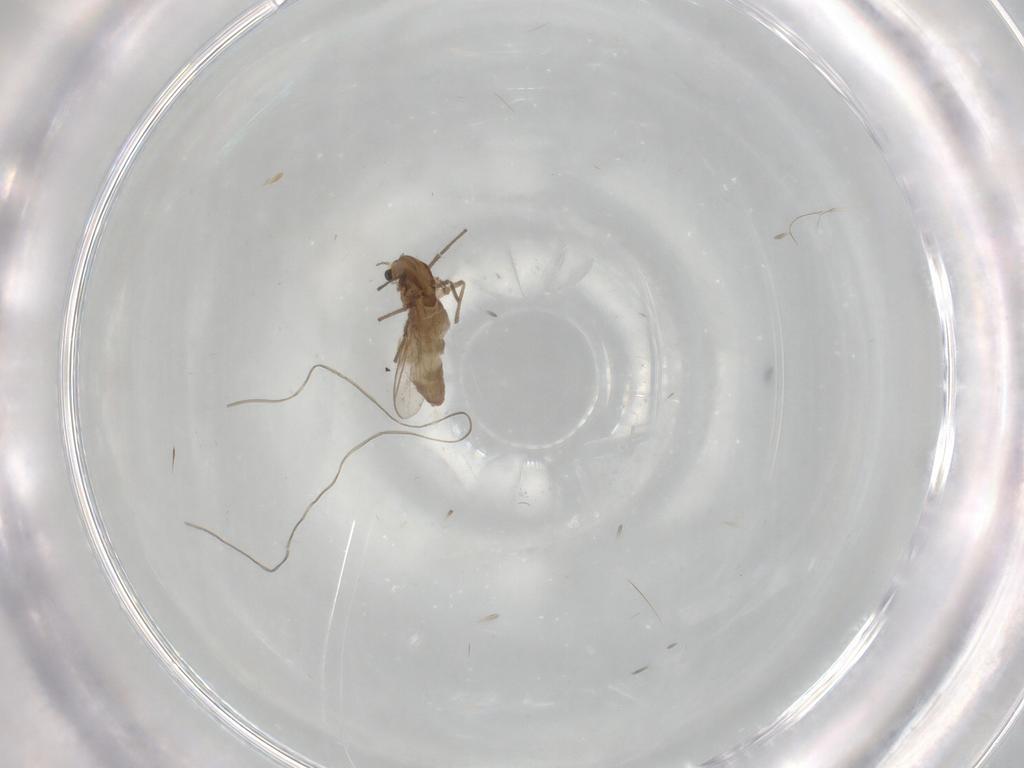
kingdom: Animalia
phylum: Arthropoda
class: Insecta
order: Diptera
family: Chironomidae
